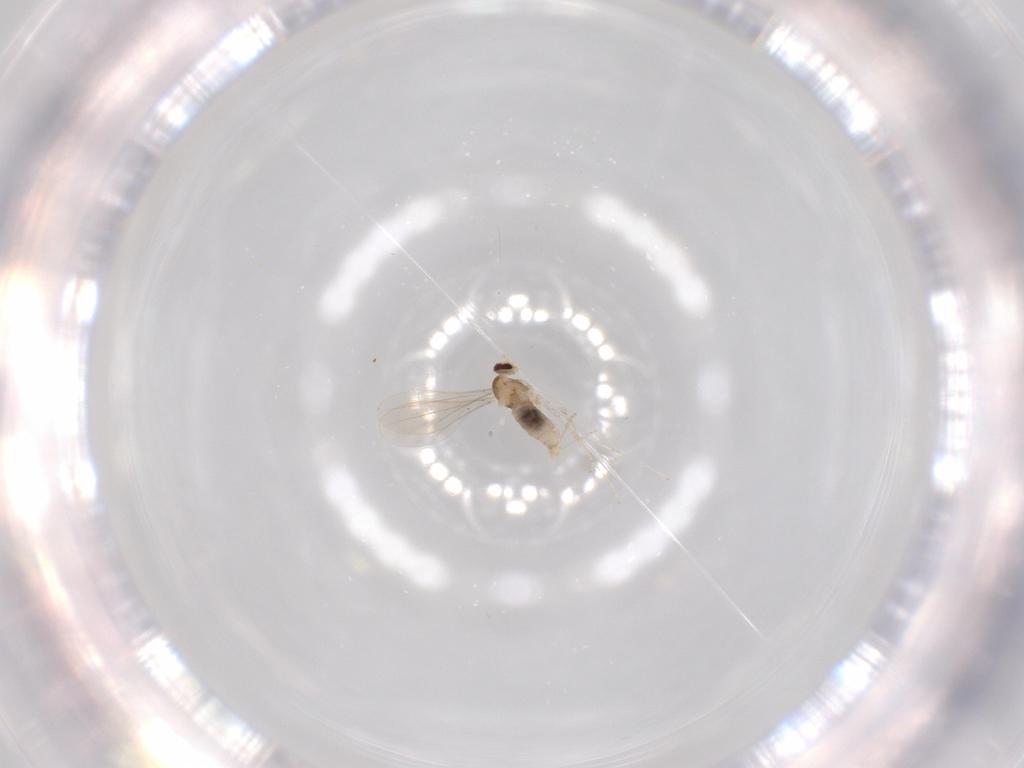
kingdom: Animalia
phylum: Arthropoda
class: Insecta
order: Diptera
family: Cecidomyiidae
